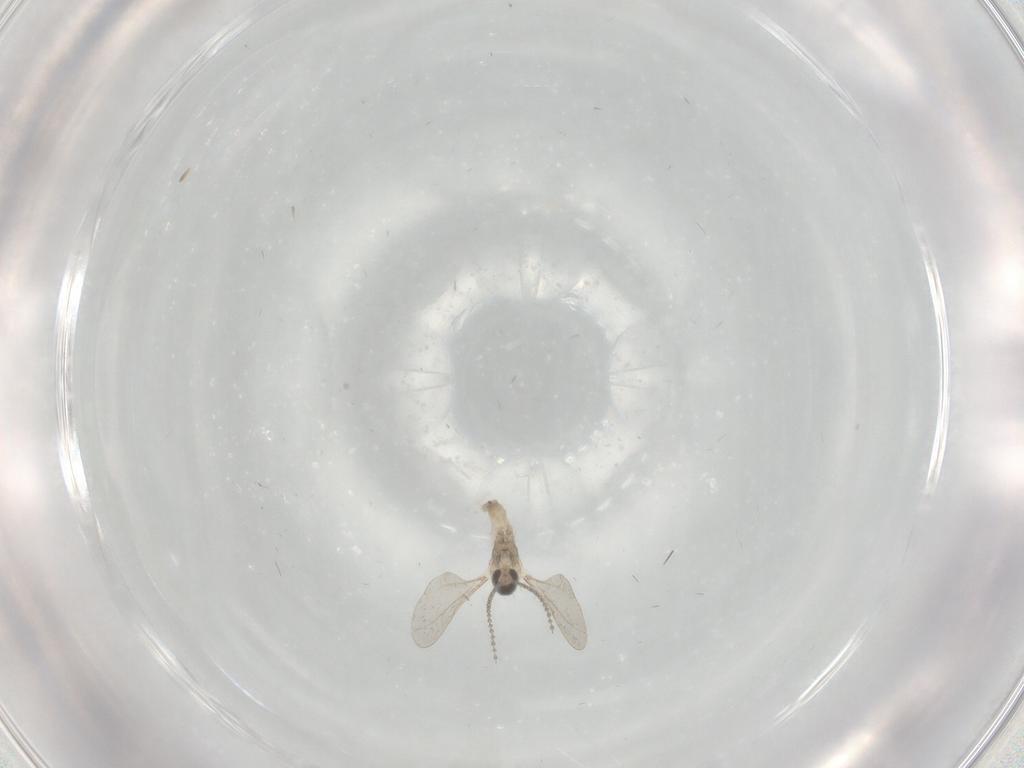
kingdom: Animalia
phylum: Arthropoda
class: Insecta
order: Diptera
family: Cecidomyiidae
